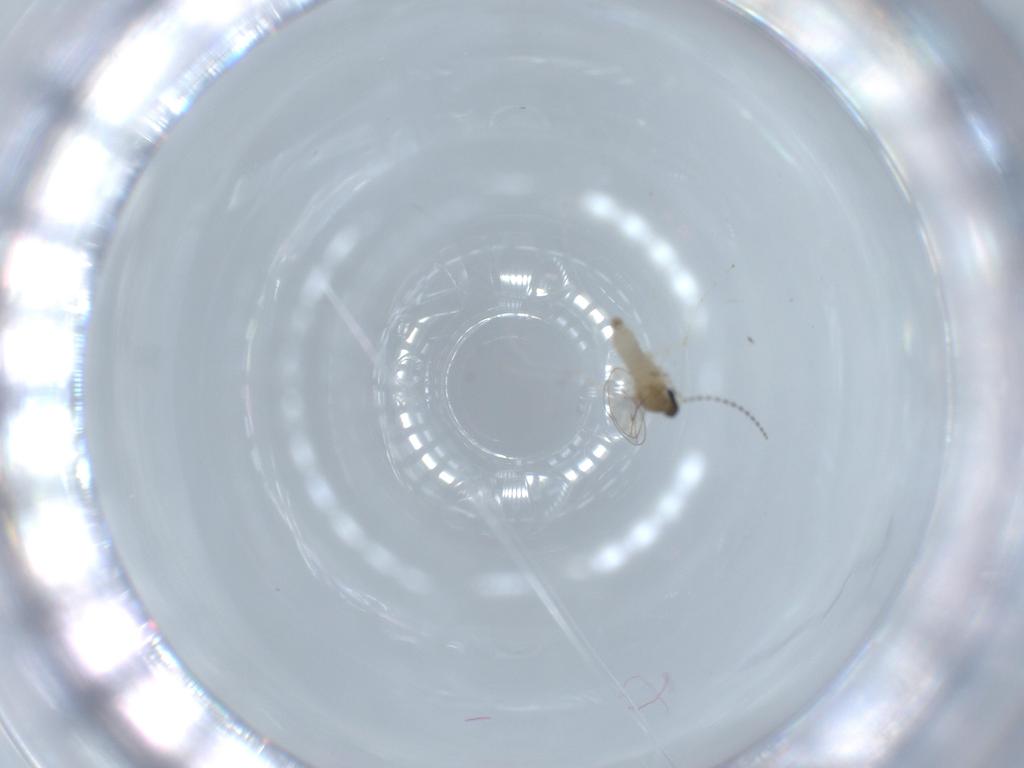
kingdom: Animalia
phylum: Arthropoda
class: Insecta
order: Diptera
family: Cecidomyiidae
